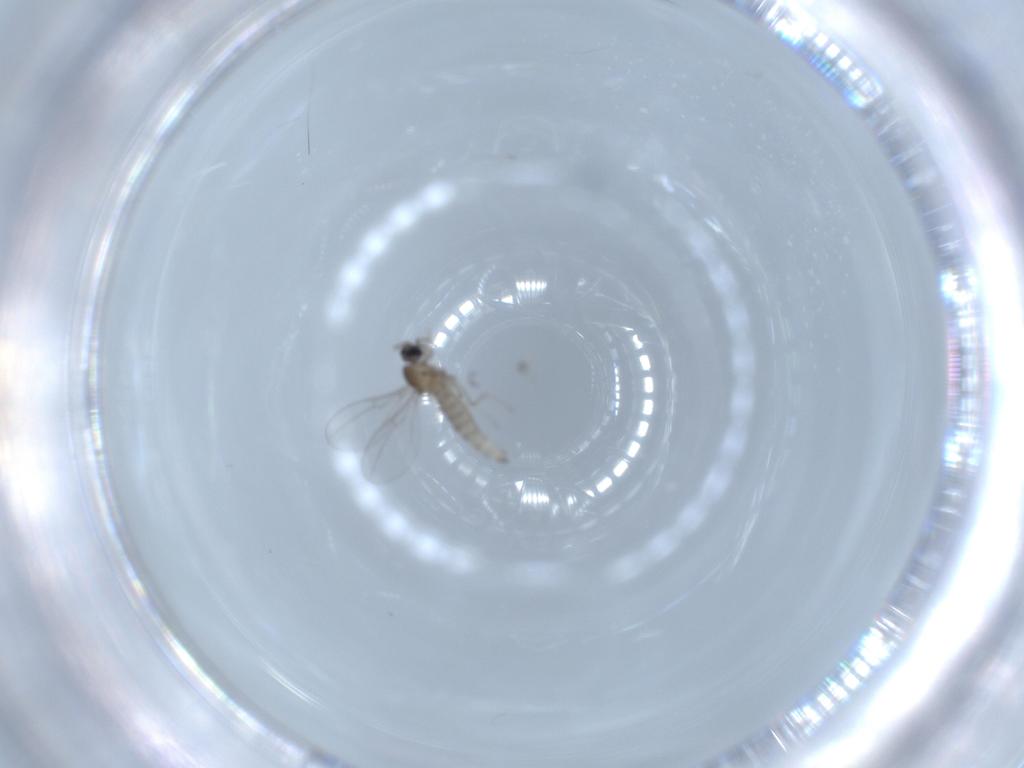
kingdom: Animalia
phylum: Arthropoda
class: Insecta
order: Diptera
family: Cecidomyiidae
